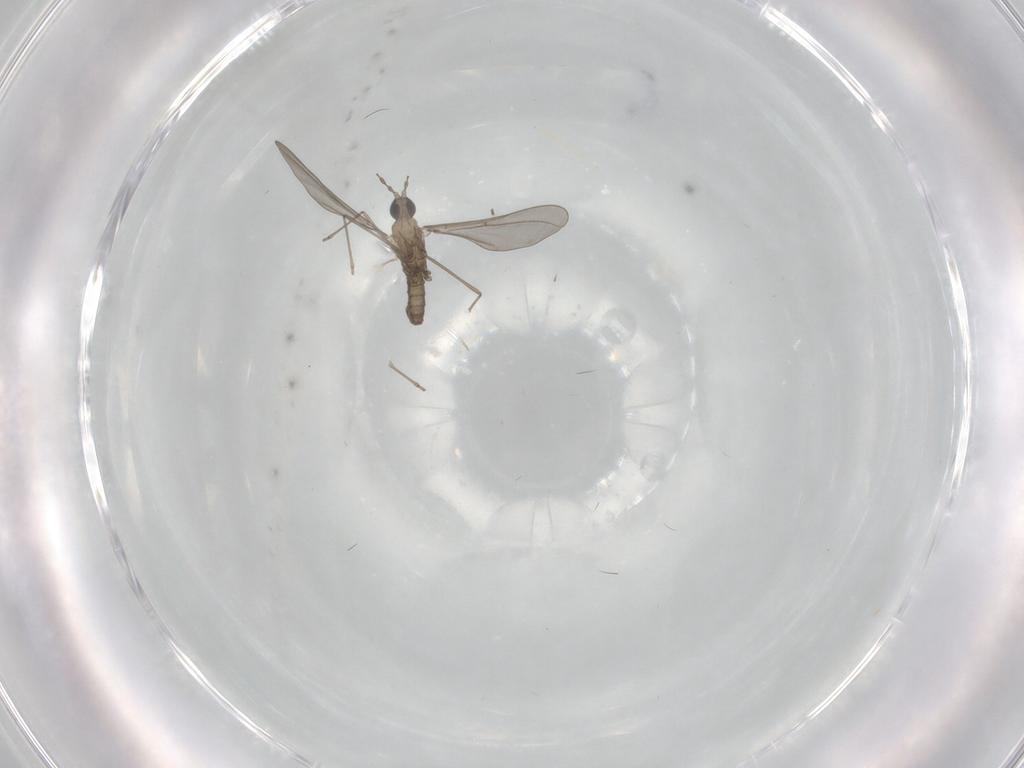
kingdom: Animalia
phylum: Arthropoda
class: Insecta
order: Diptera
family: Cecidomyiidae
